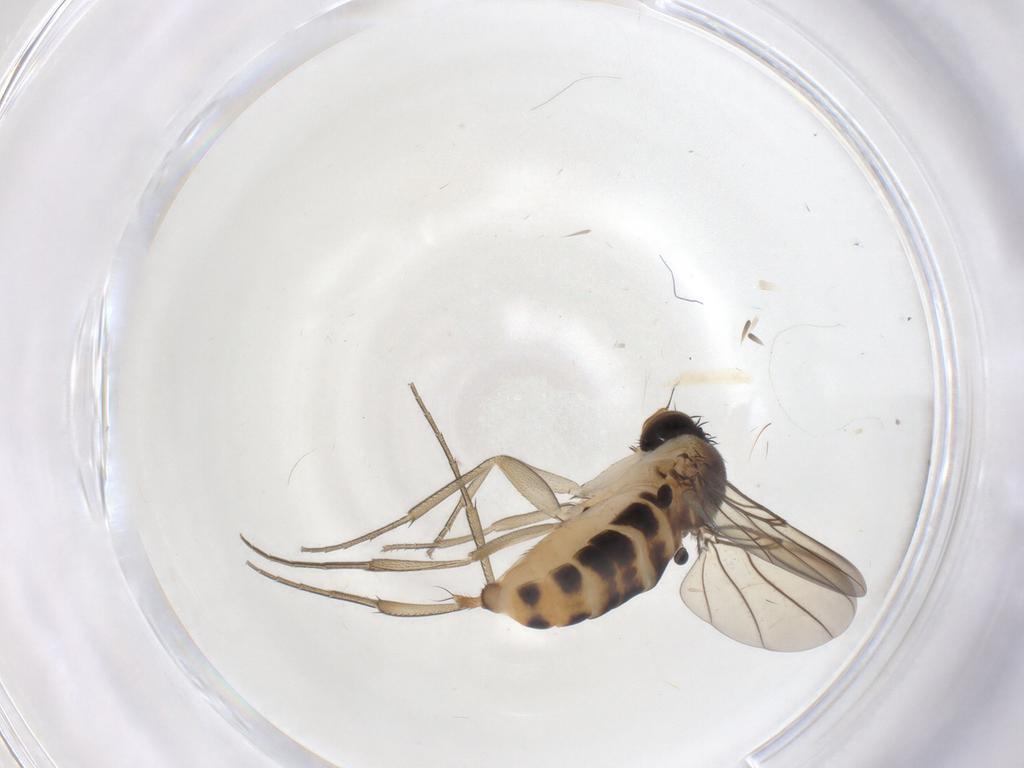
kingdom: Animalia
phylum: Arthropoda
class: Insecta
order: Diptera
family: Phoridae
